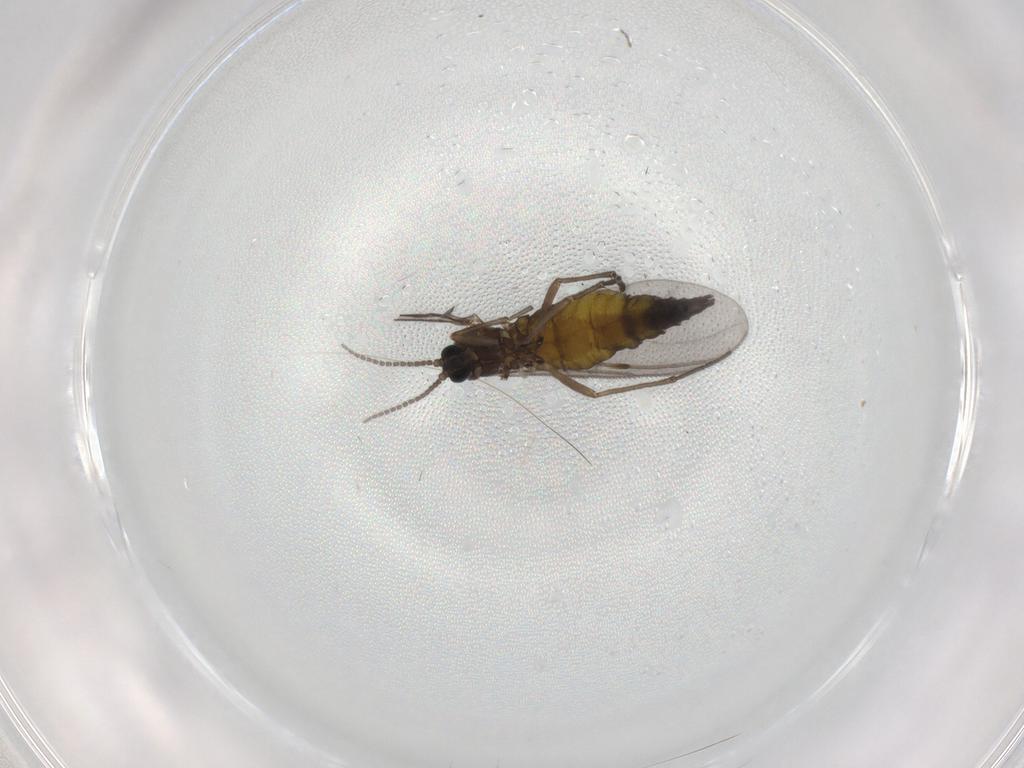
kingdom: Animalia
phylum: Arthropoda
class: Insecta
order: Diptera
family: Sciaridae
